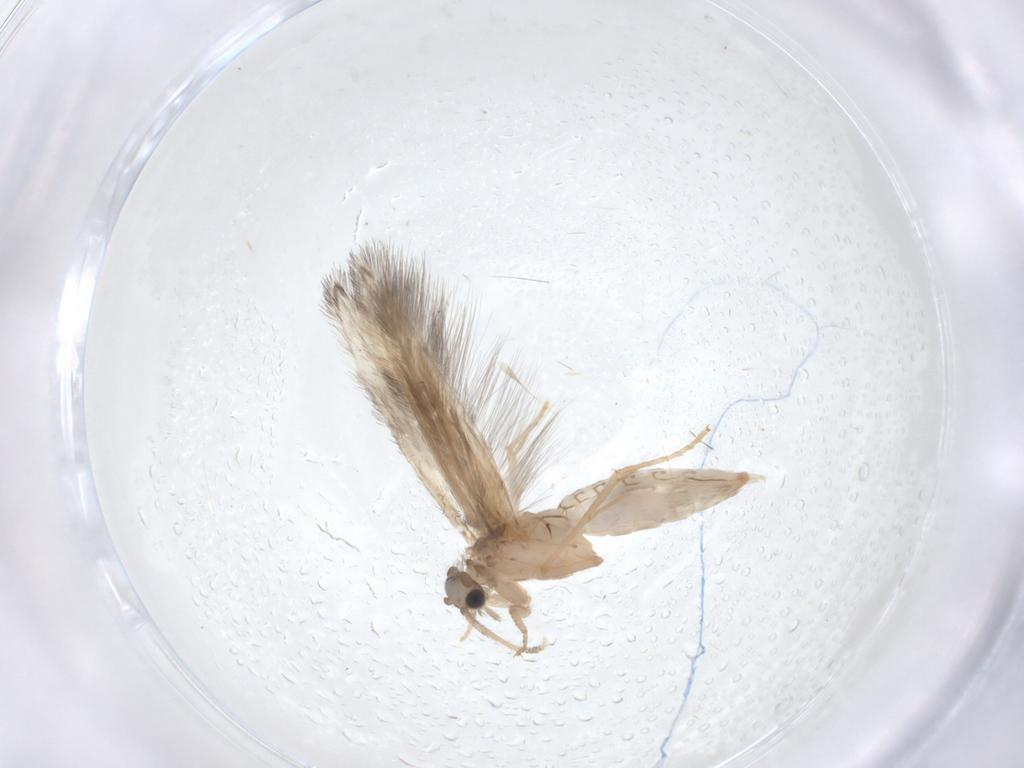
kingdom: Animalia
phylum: Arthropoda
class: Insecta
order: Trichoptera
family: Hydroptilidae
